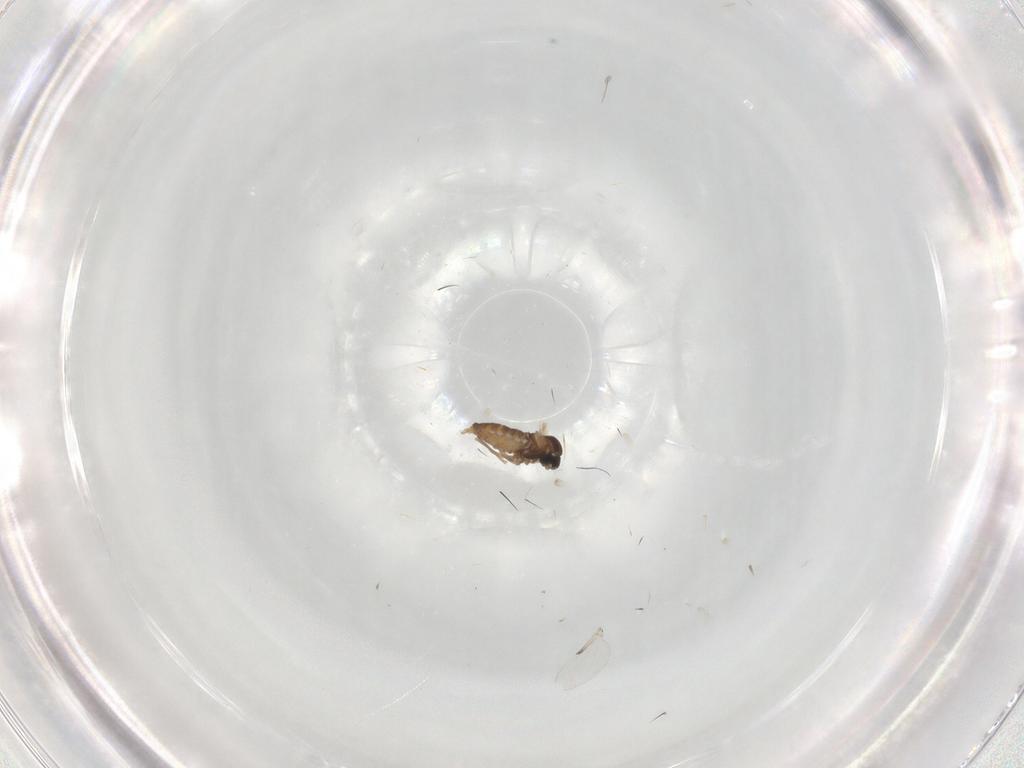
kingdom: Animalia
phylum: Arthropoda
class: Insecta
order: Diptera
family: Cecidomyiidae
